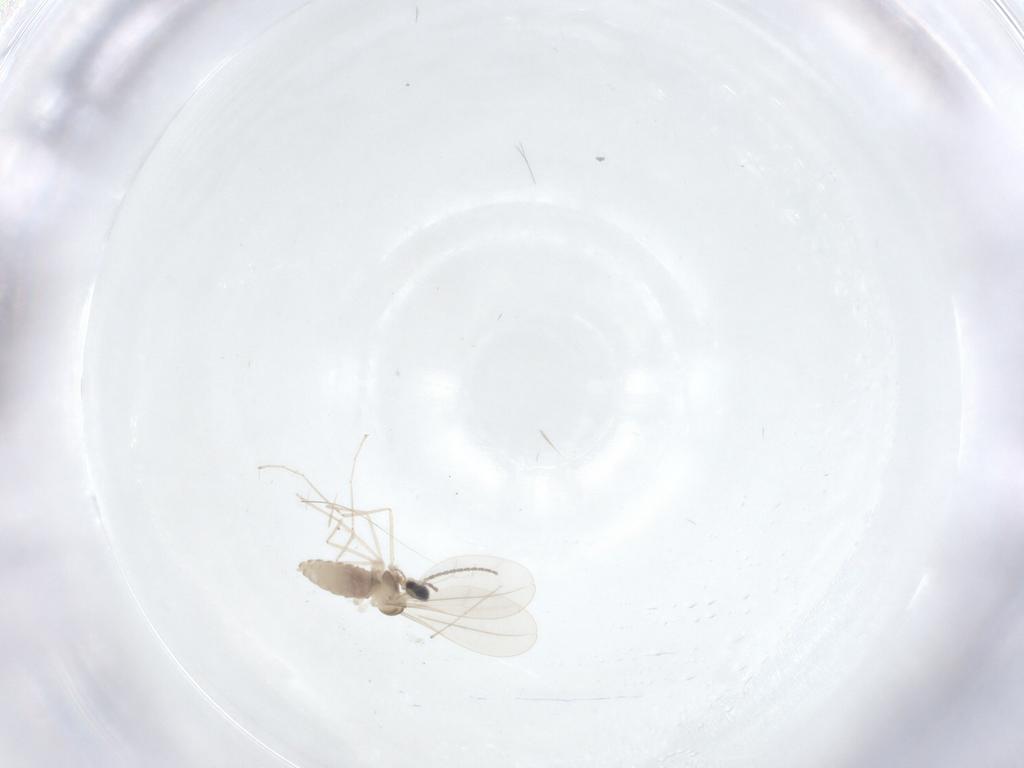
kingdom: Animalia
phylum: Arthropoda
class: Insecta
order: Diptera
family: Cecidomyiidae
